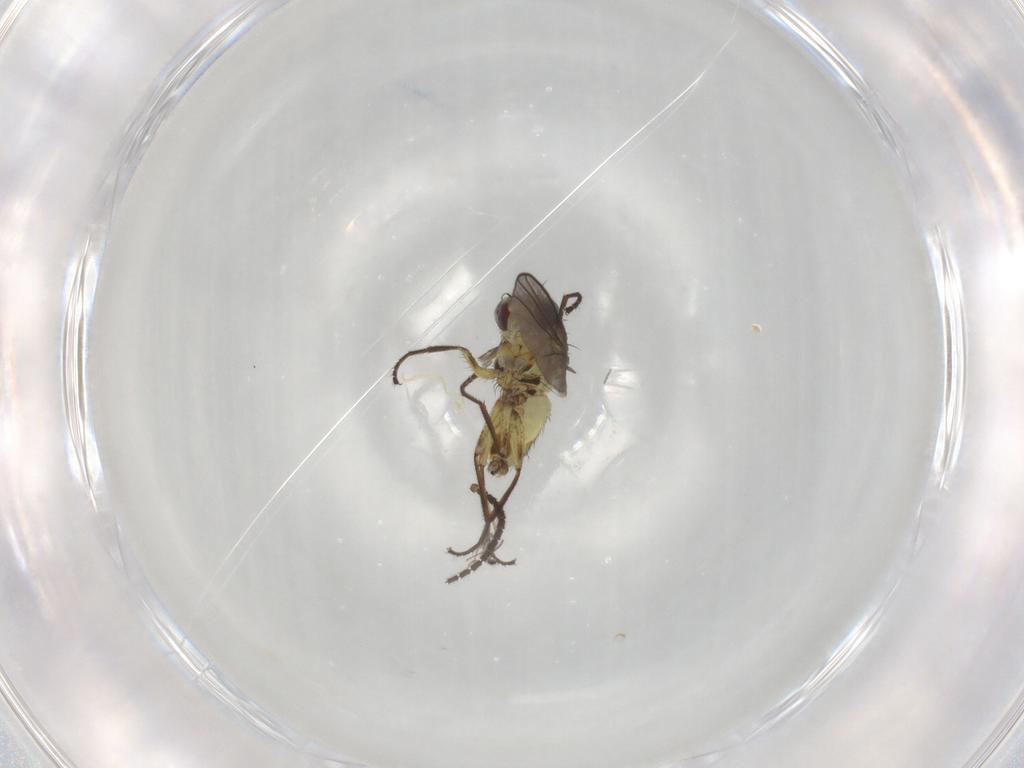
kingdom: Animalia
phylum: Arthropoda
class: Insecta
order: Diptera
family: Agromyzidae
